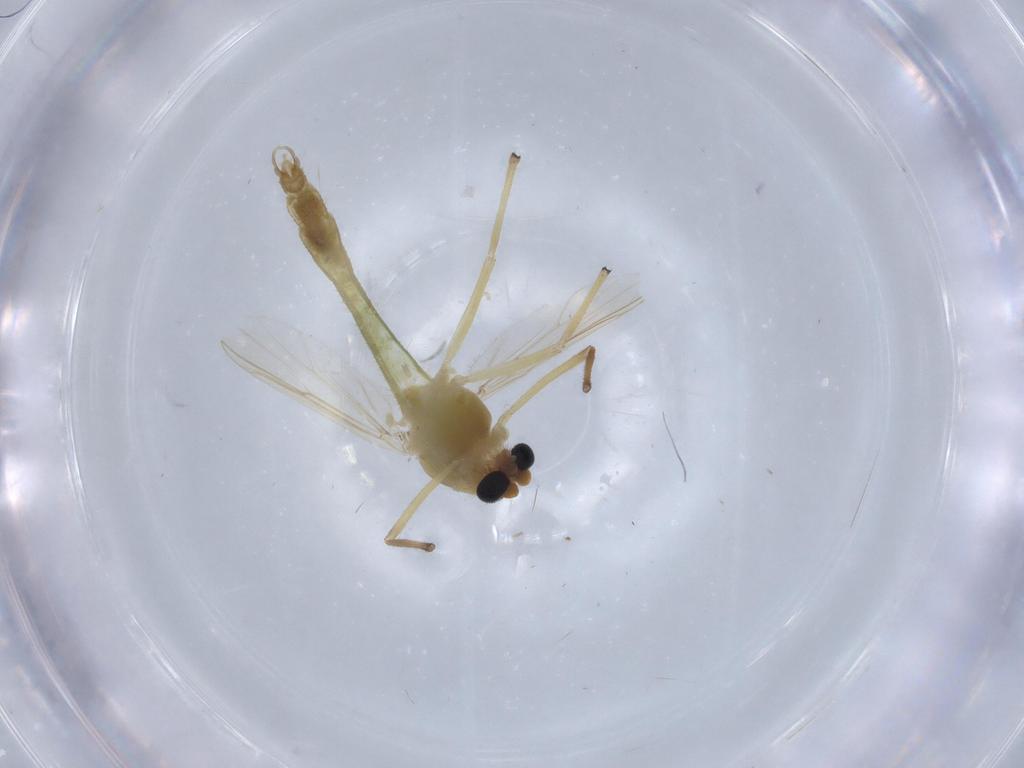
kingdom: Animalia
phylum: Arthropoda
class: Insecta
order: Diptera
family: Chironomidae
